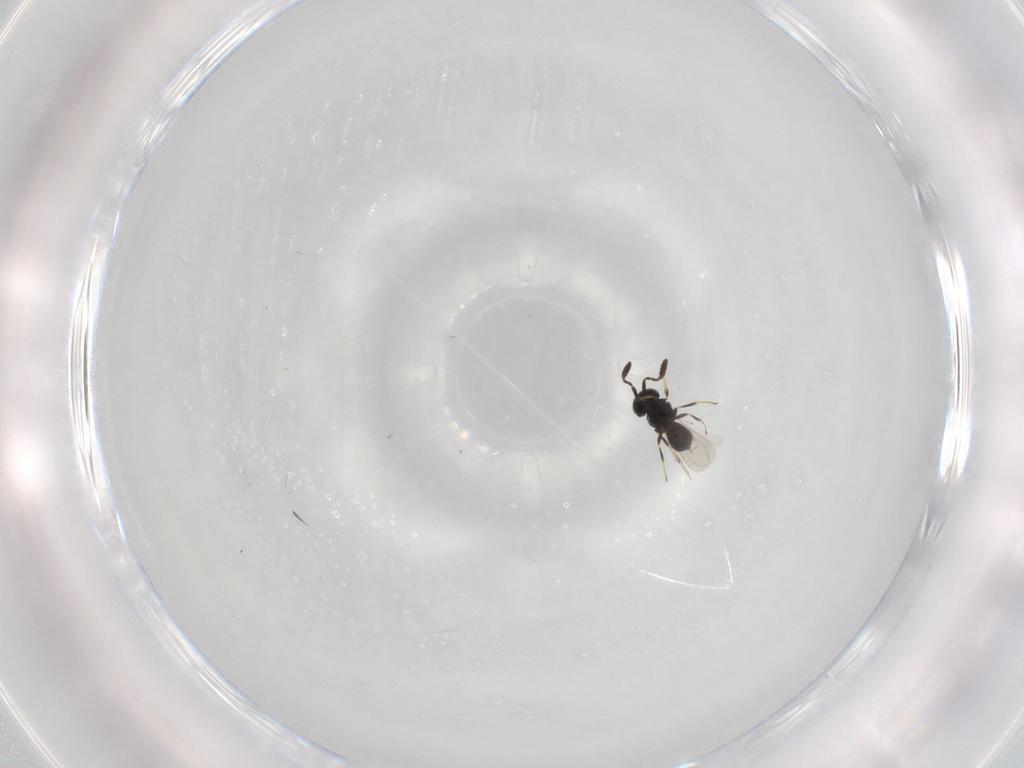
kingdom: Animalia
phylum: Arthropoda
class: Insecta
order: Hymenoptera
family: Scelionidae
